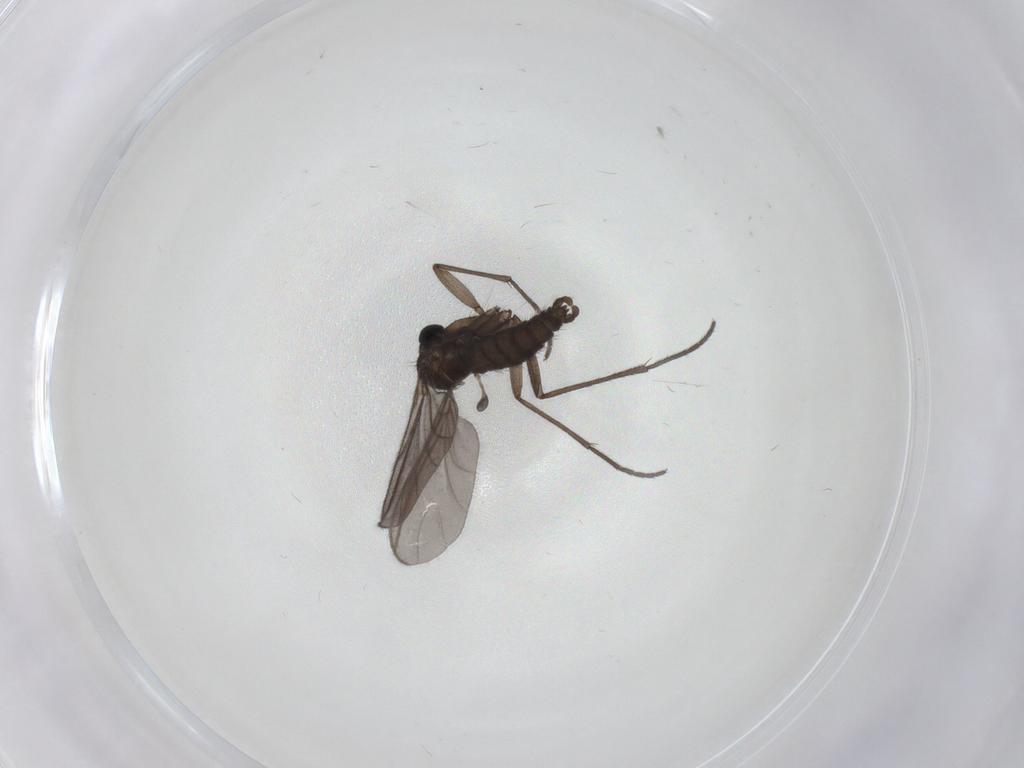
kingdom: Animalia
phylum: Arthropoda
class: Insecta
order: Diptera
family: Sciaridae
